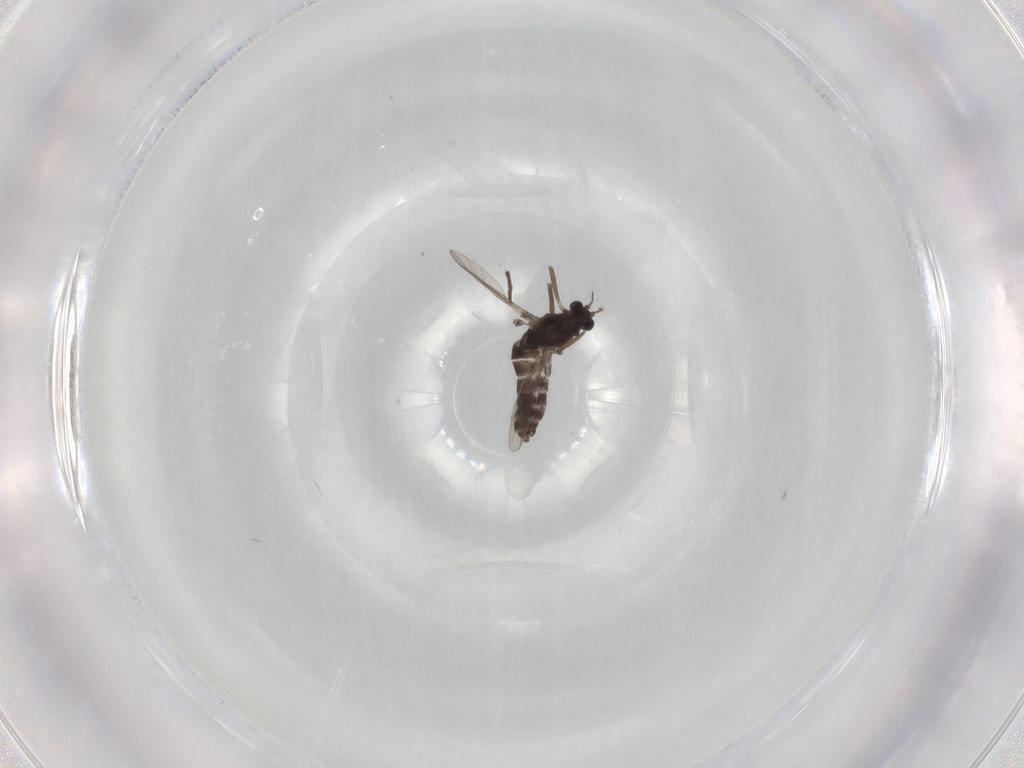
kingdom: Animalia
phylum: Arthropoda
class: Insecta
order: Diptera
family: Chironomidae
